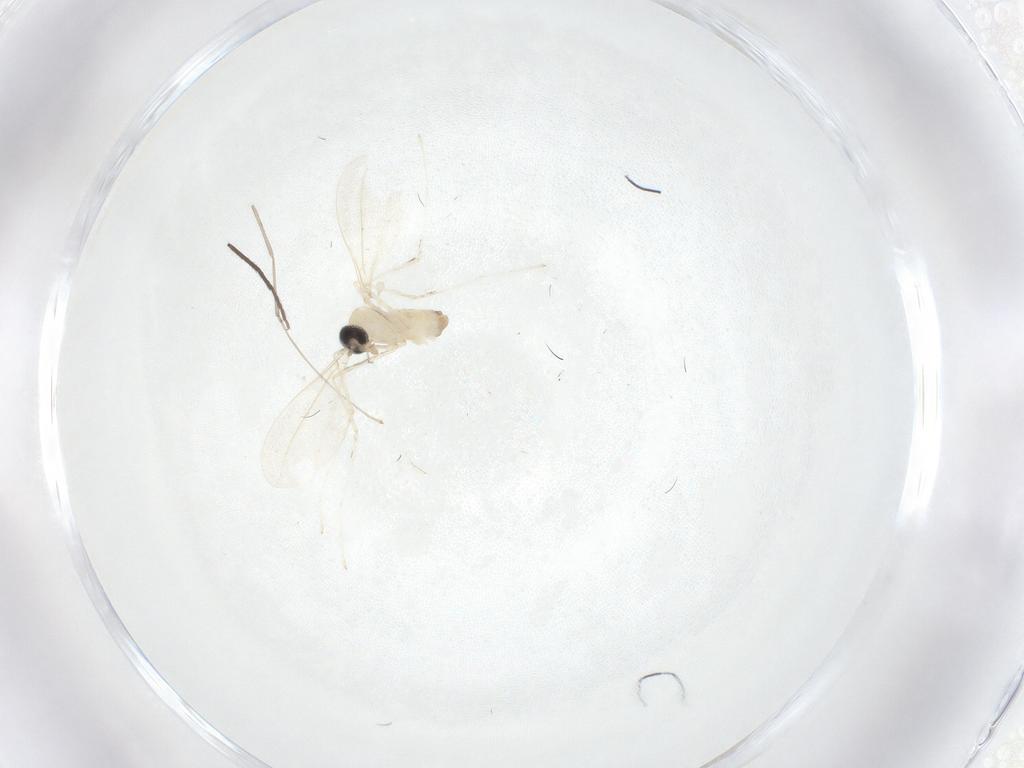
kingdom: Animalia
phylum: Arthropoda
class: Insecta
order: Diptera
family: Cecidomyiidae
